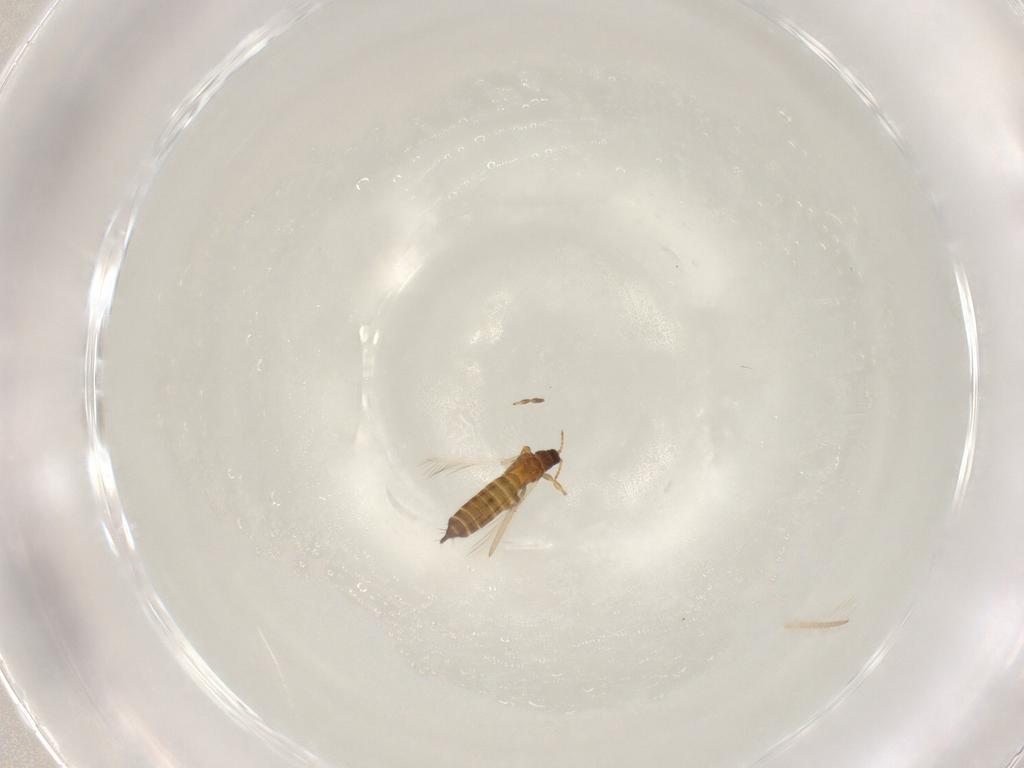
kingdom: Animalia
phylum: Arthropoda
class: Insecta
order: Thysanoptera
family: Thripidae
